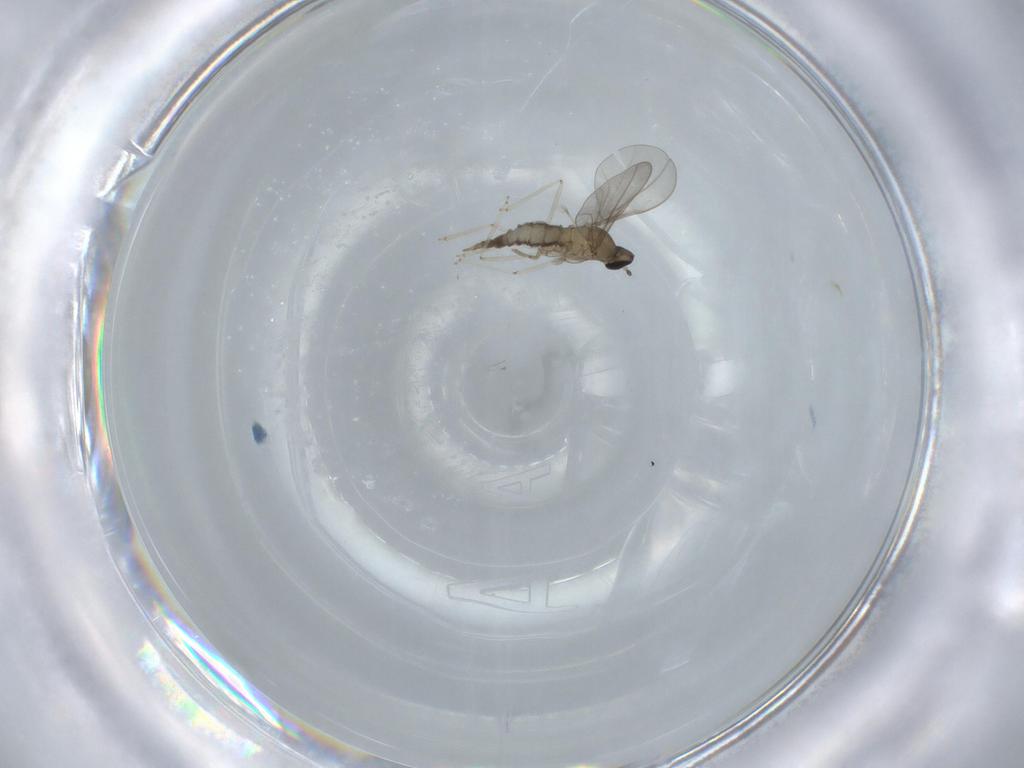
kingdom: Animalia
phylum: Arthropoda
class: Insecta
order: Diptera
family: Cecidomyiidae
